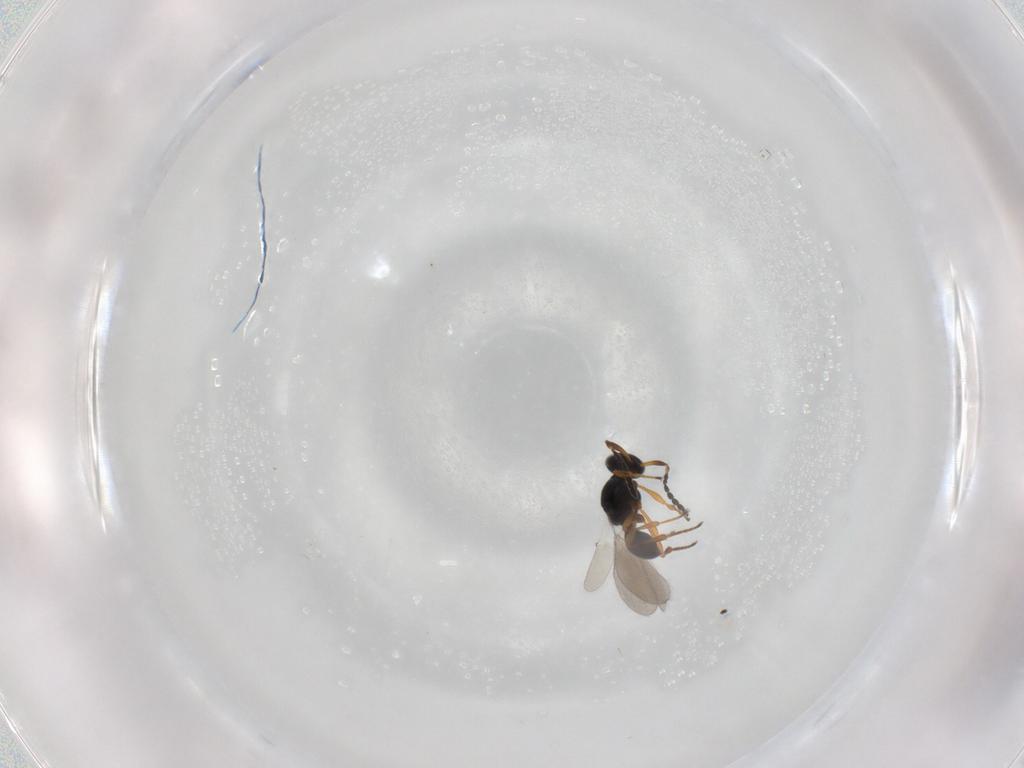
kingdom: Animalia
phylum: Arthropoda
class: Insecta
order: Hymenoptera
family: Platygastridae
